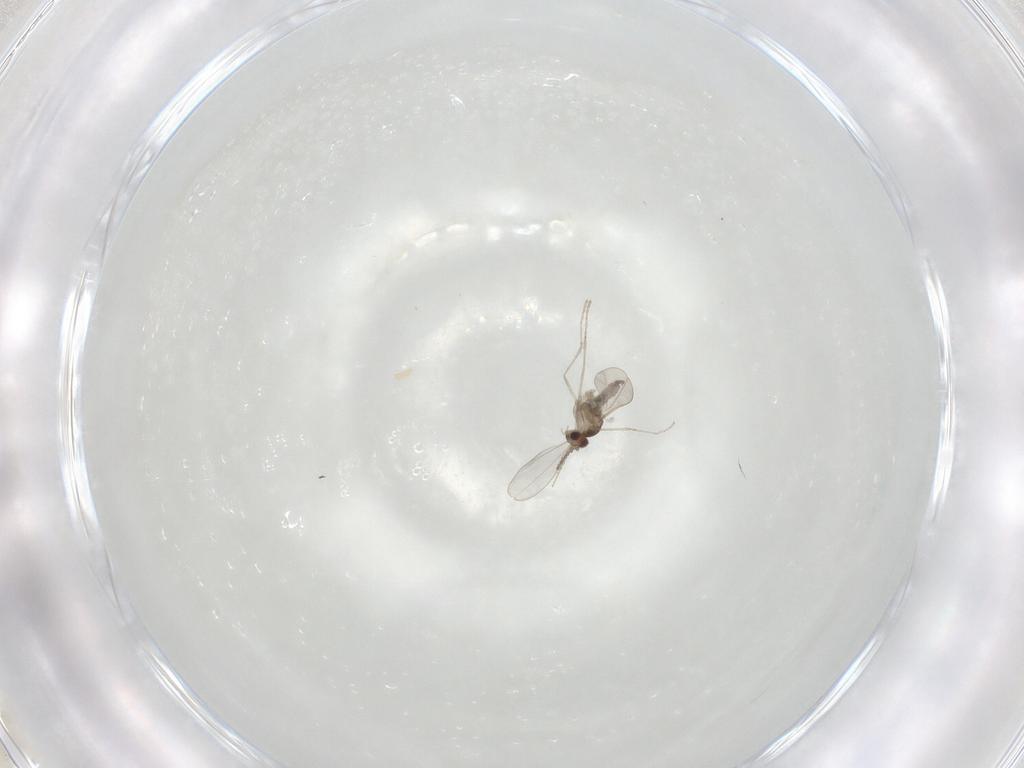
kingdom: Animalia
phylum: Arthropoda
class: Insecta
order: Diptera
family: Cecidomyiidae
